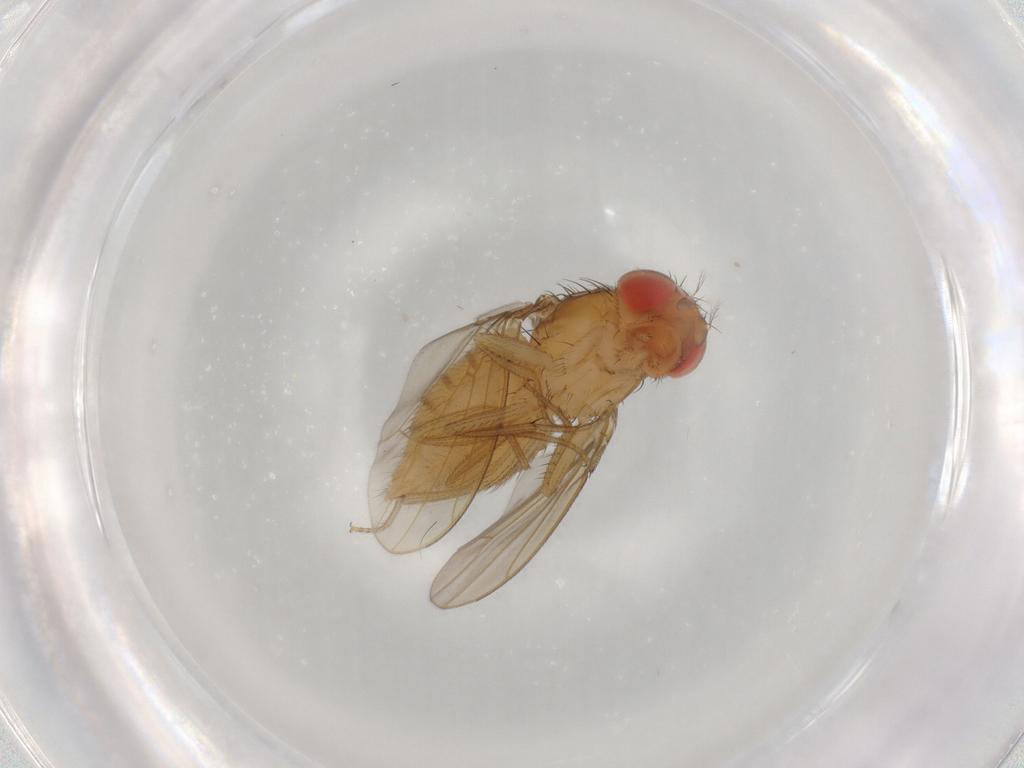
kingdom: Animalia
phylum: Arthropoda
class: Insecta
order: Diptera
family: Drosophilidae
